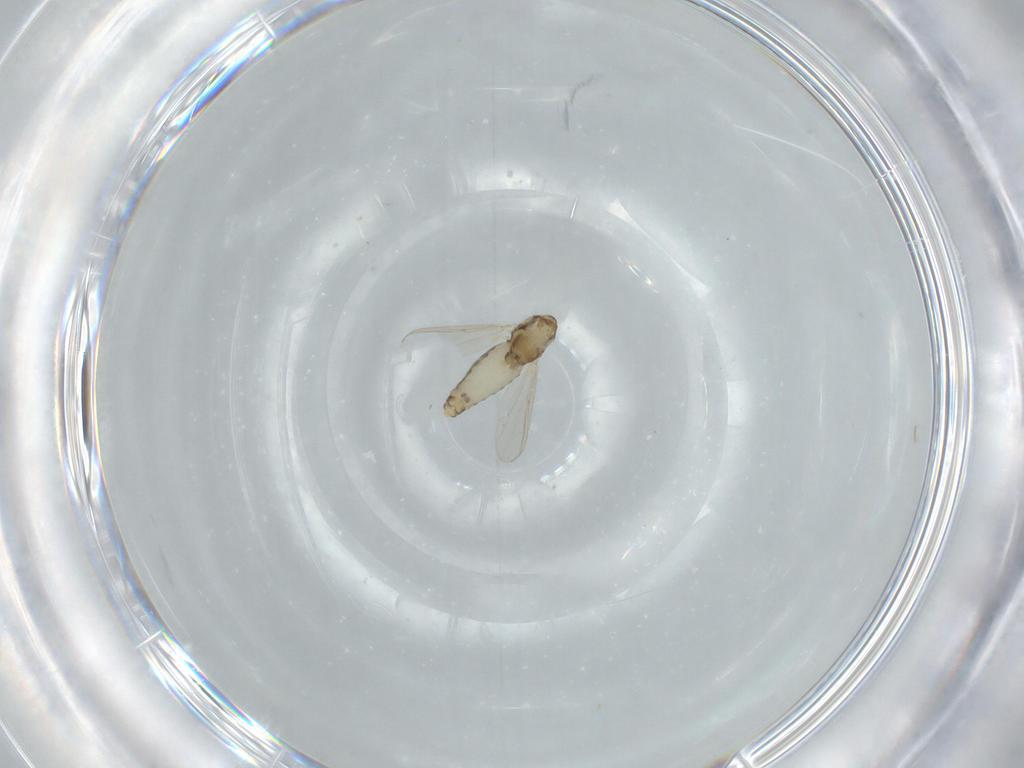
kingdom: Animalia
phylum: Arthropoda
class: Insecta
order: Diptera
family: Chironomidae
